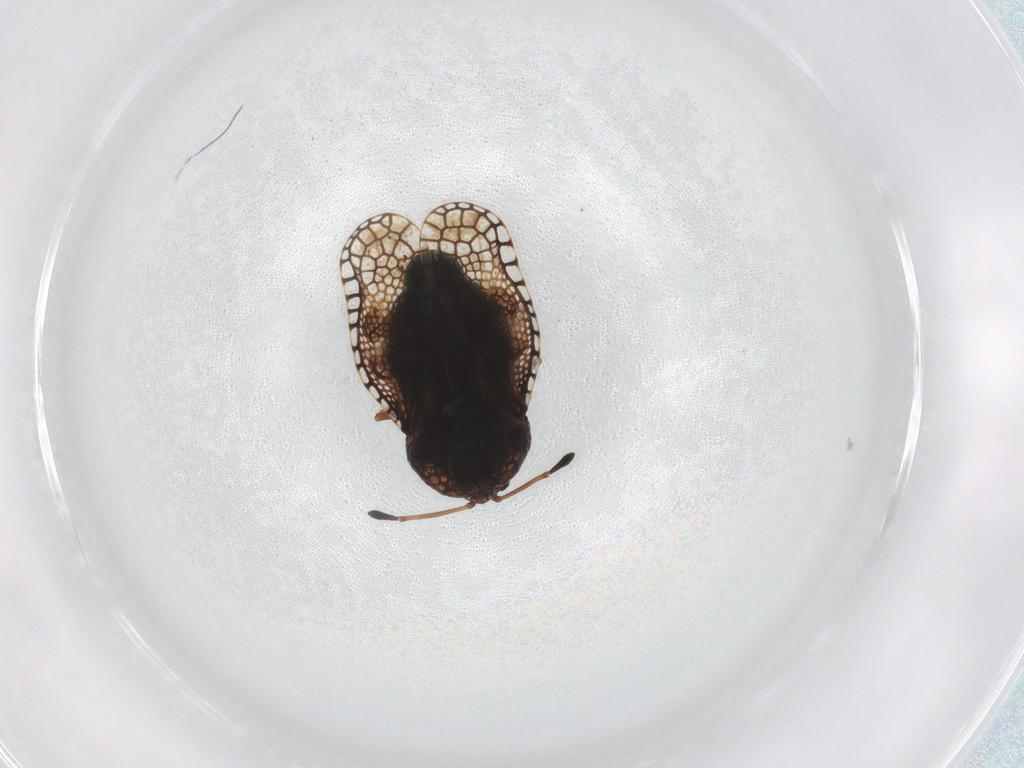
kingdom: Animalia
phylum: Arthropoda
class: Insecta
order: Hemiptera
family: Tingidae
